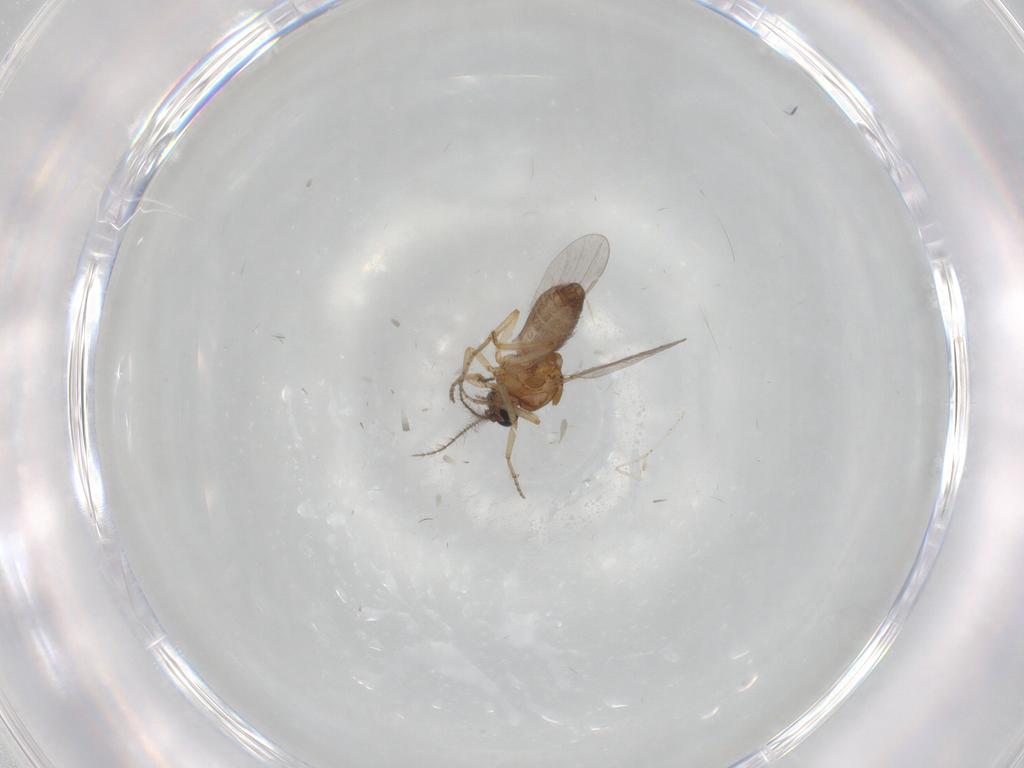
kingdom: Animalia
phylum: Arthropoda
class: Insecta
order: Diptera
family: Ceratopogonidae
